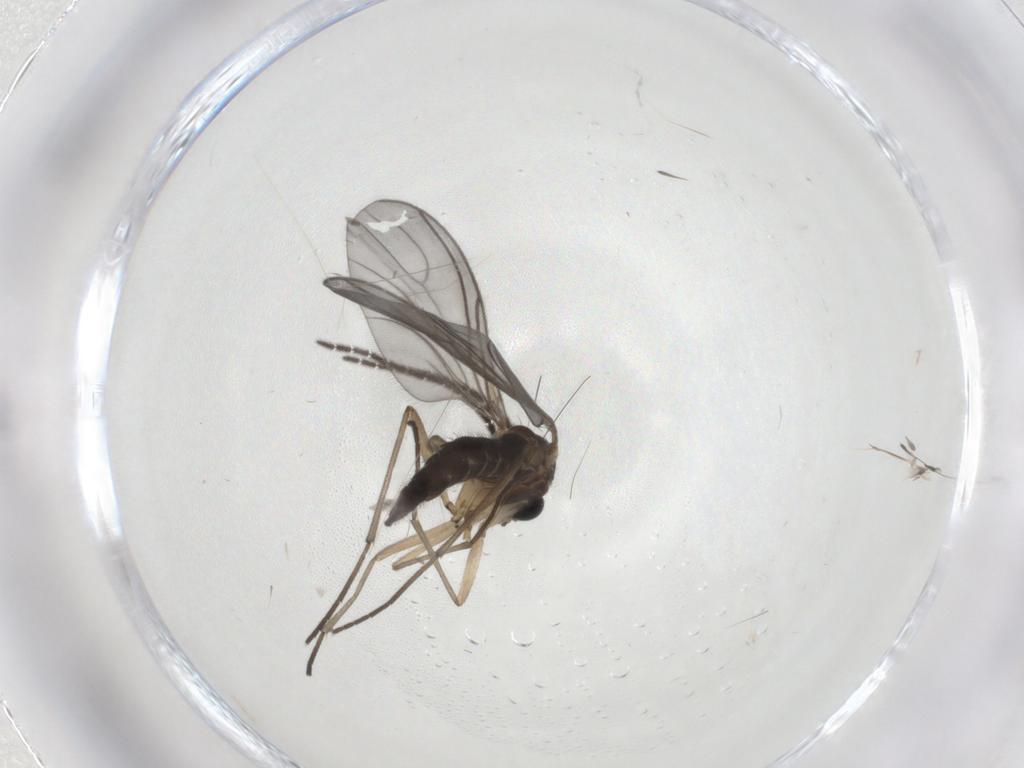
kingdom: Animalia
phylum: Arthropoda
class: Insecta
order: Diptera
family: Sciaridae
